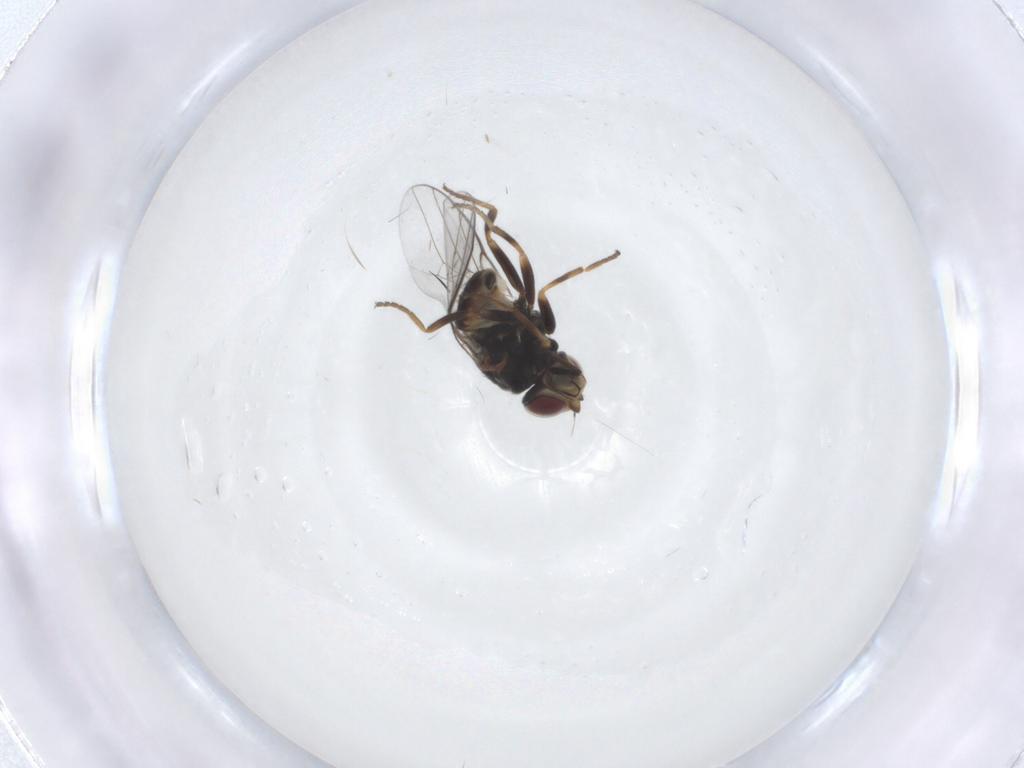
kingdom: Animalia
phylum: Arthropoda
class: Insecta
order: Diptera
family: Chloropidae
